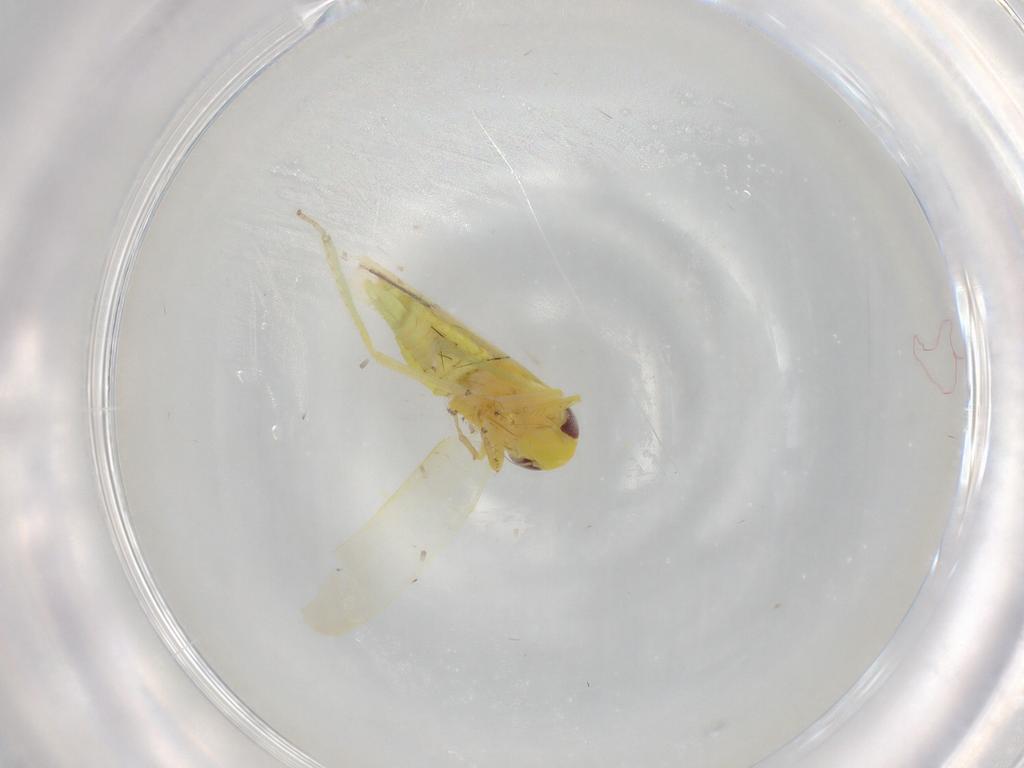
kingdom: Animalia
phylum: Arthropoda
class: Insecta
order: Hemiptera
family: Cicadellidae
